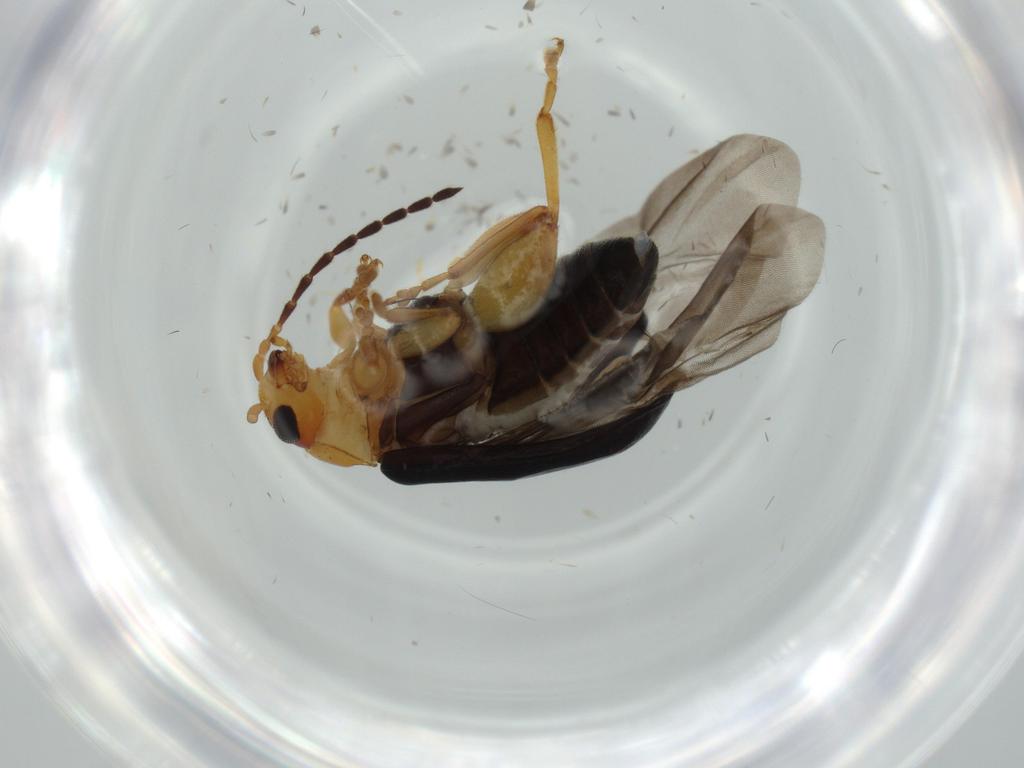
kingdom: Animalia
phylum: Arthropoda
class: Insecta
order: Coleoptera
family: Chrysomelidae
